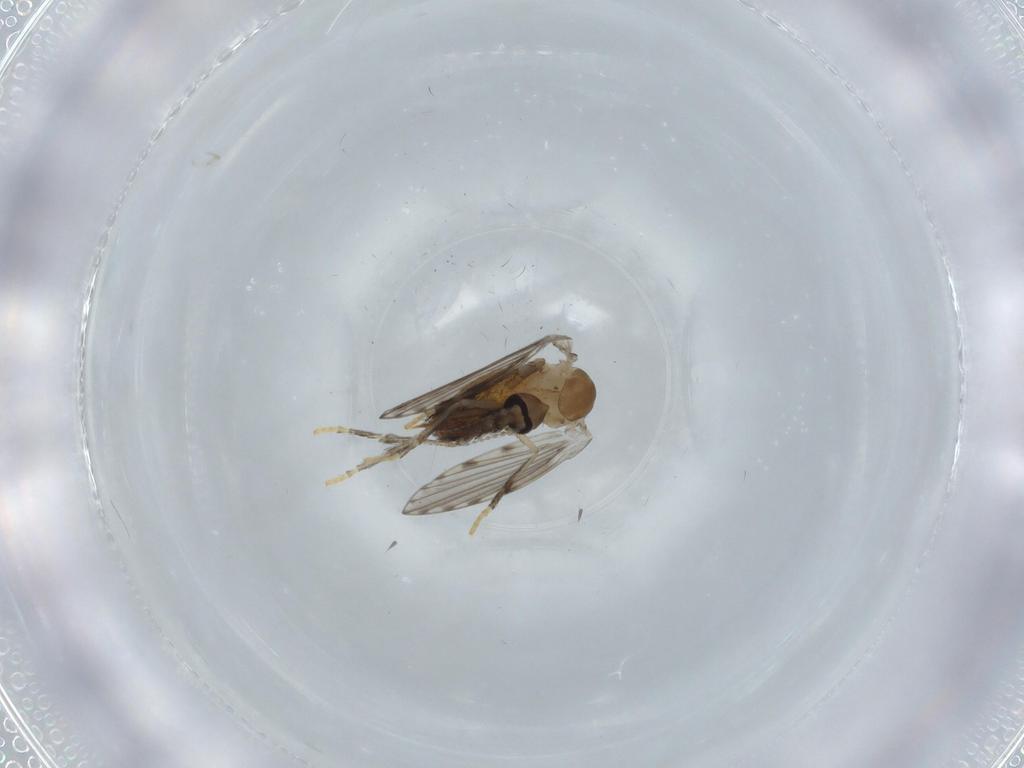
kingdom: Animalia
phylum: Arthropoda
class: Insecta
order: Diptera
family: Psychodidae
